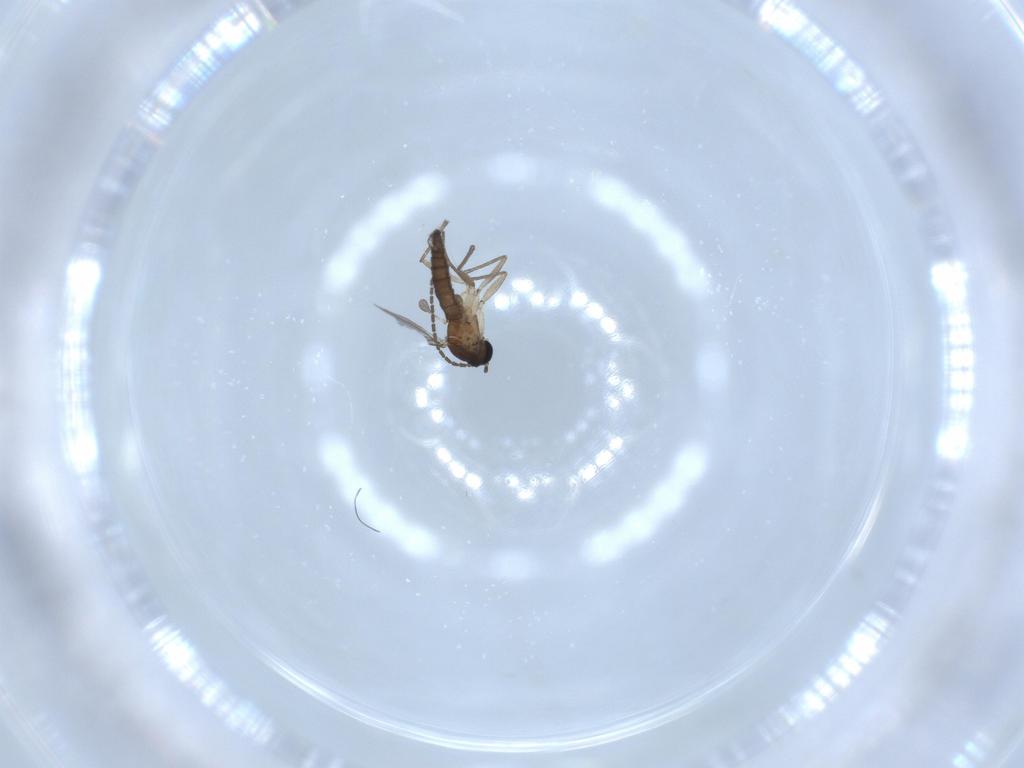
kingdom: Animalia
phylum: Arthropoda
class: Insecta
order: Diptera
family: Sciaridae
